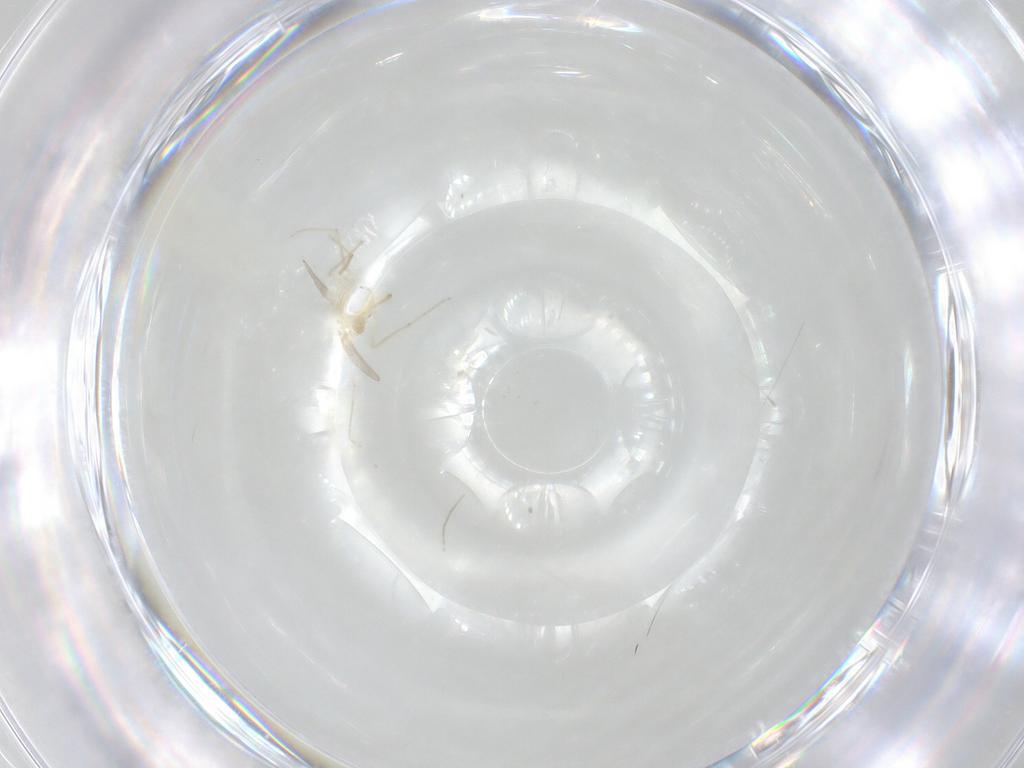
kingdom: Animalia
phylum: Arthropoda
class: Insecta
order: Diptera
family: Chironomidae
